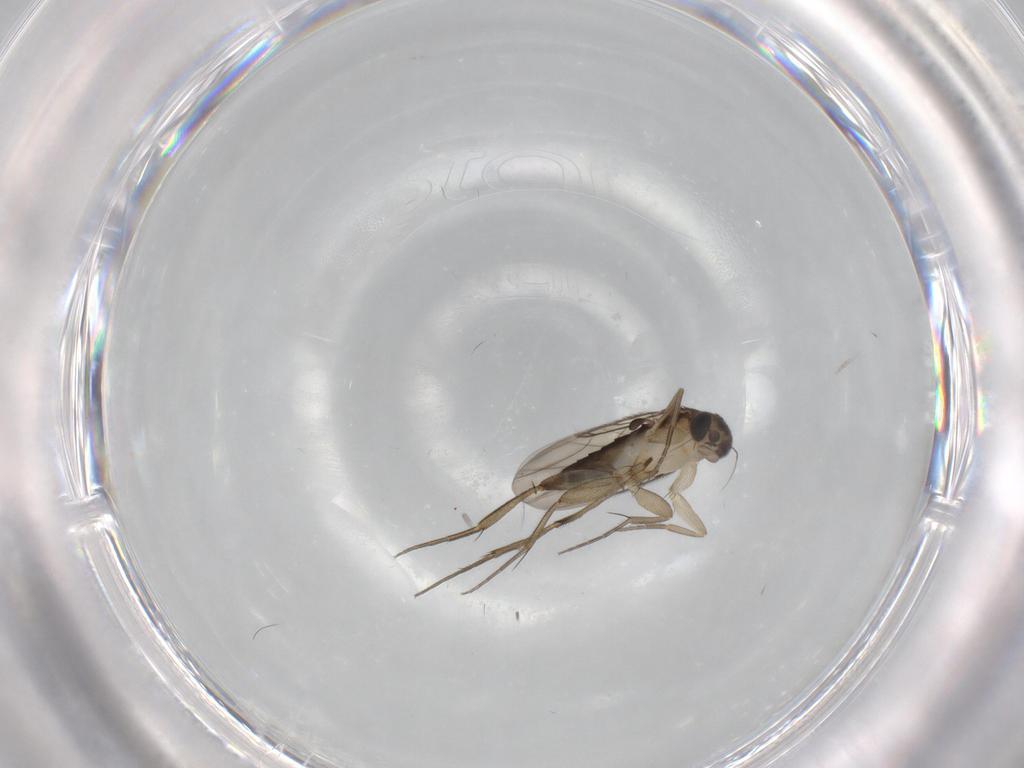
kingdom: Animalia
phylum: Arthropoda
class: Insecta
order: Diptera
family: Phoridae
